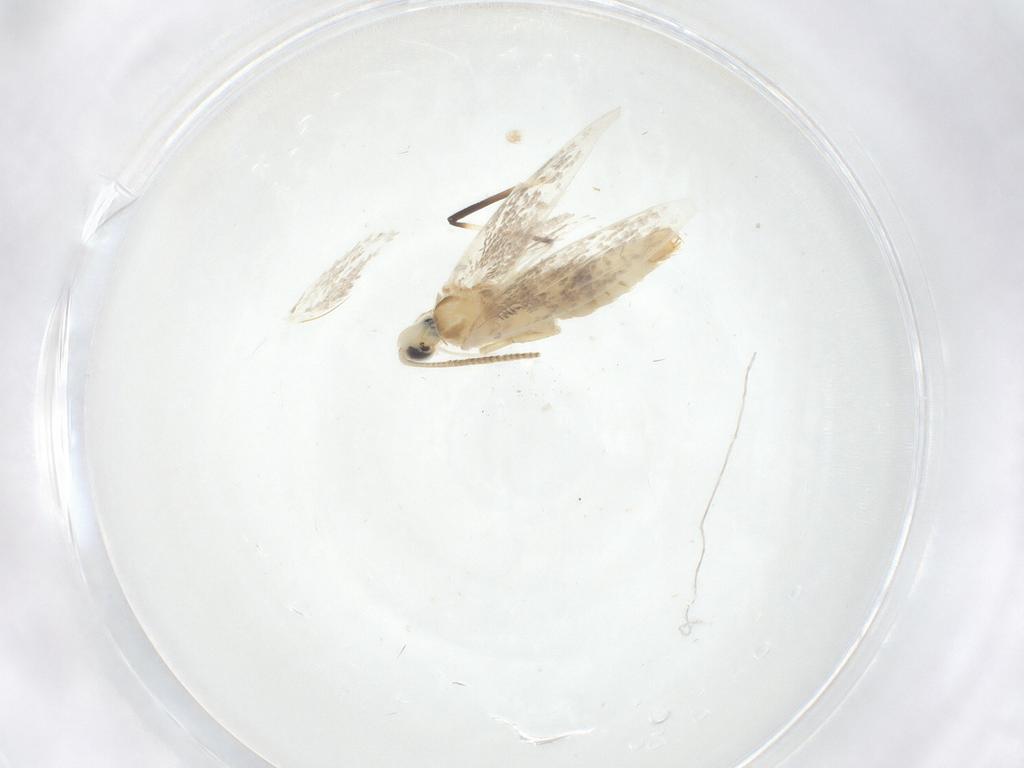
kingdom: Animalia
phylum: Arthropoda
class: Insecta
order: Lepidoptera
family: Gracillariidae
